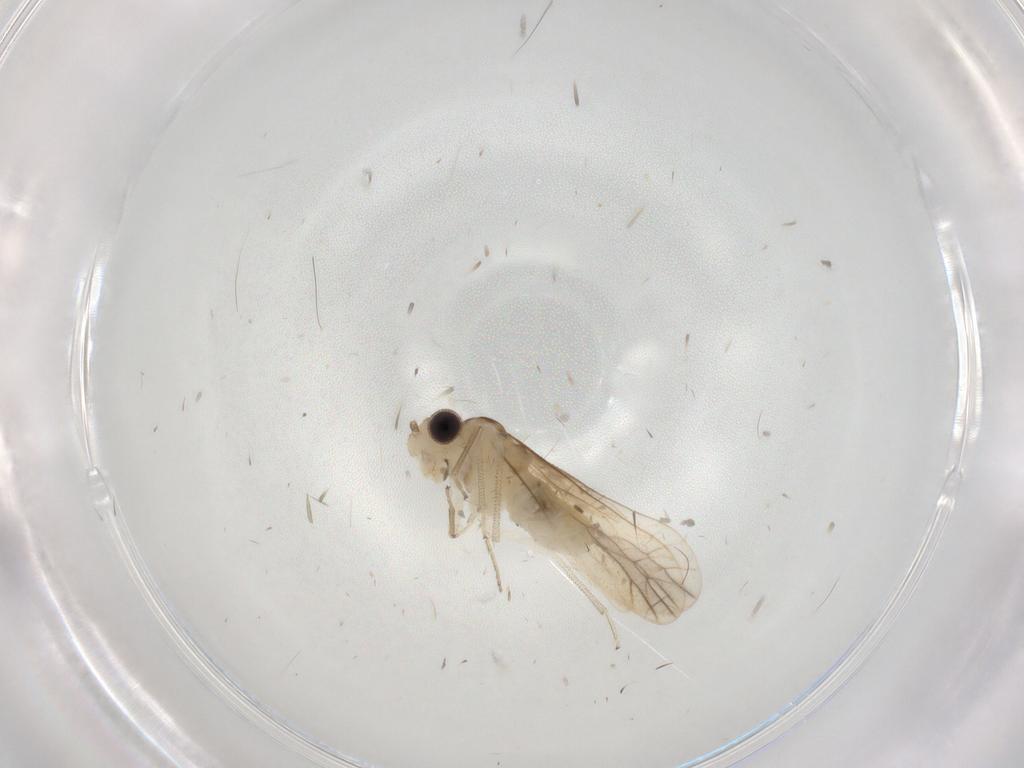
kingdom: Animalia
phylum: Arthropoda
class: Insecta
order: Psocodea
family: Caeciliusidae
